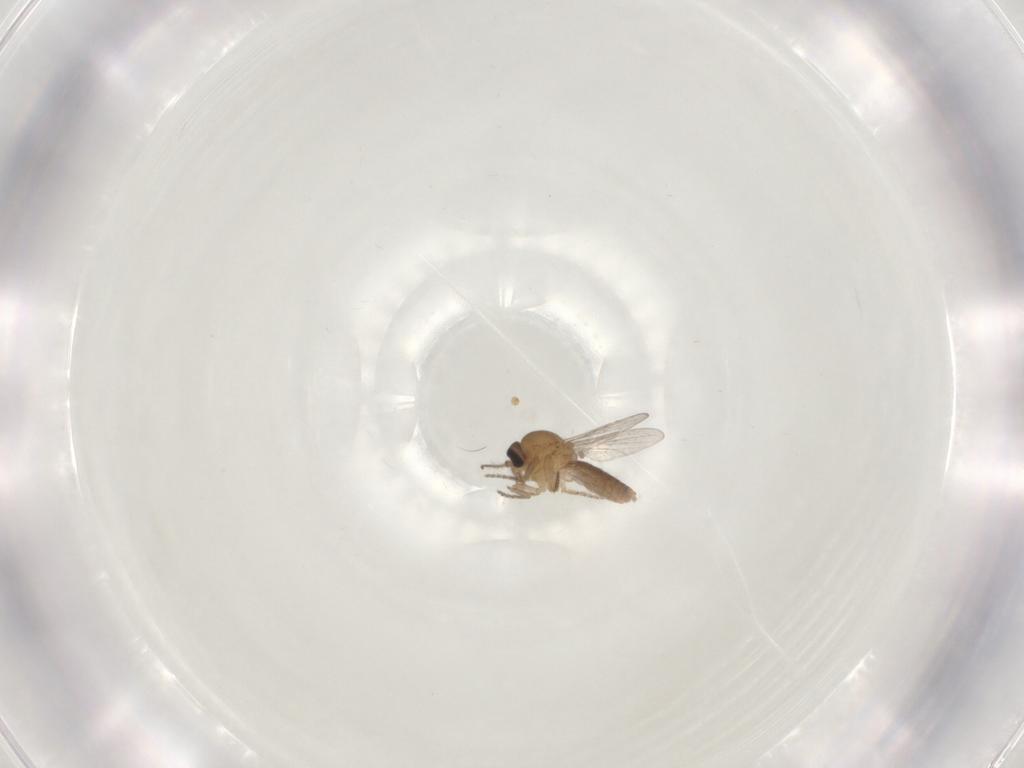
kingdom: Animalia
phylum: Arthropoda
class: Insecta
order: Diptera
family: Ceratopogonidae
